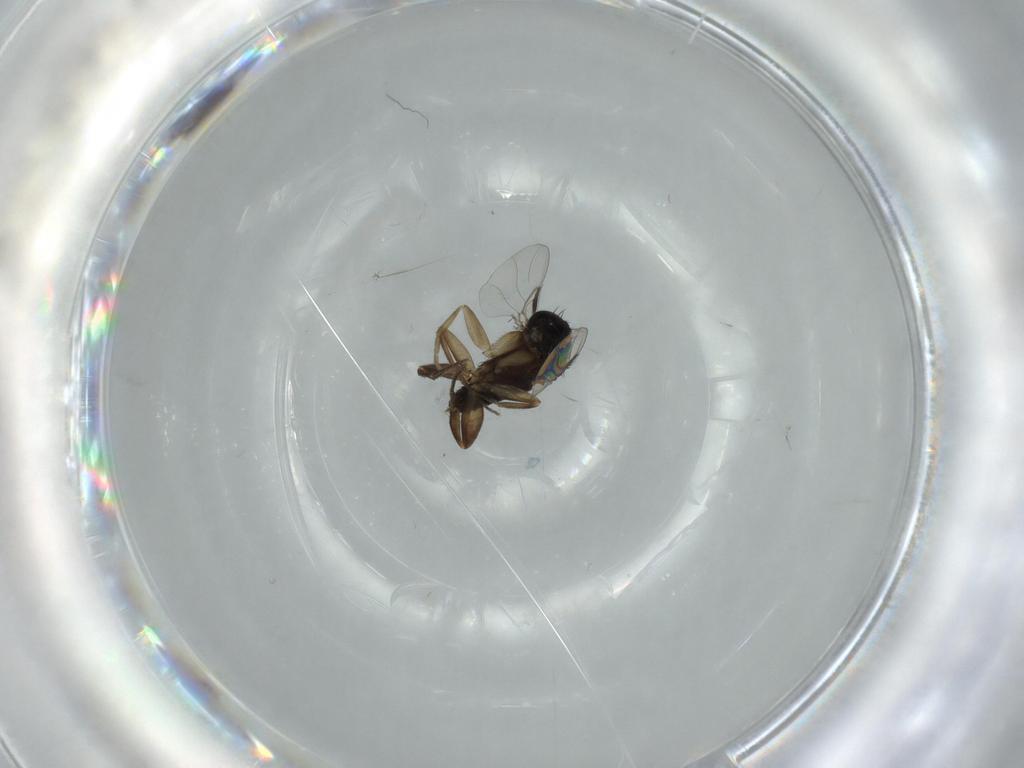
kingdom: Animalia
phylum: Arthropoda
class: Insecta
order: Diptera
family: Phoridae
